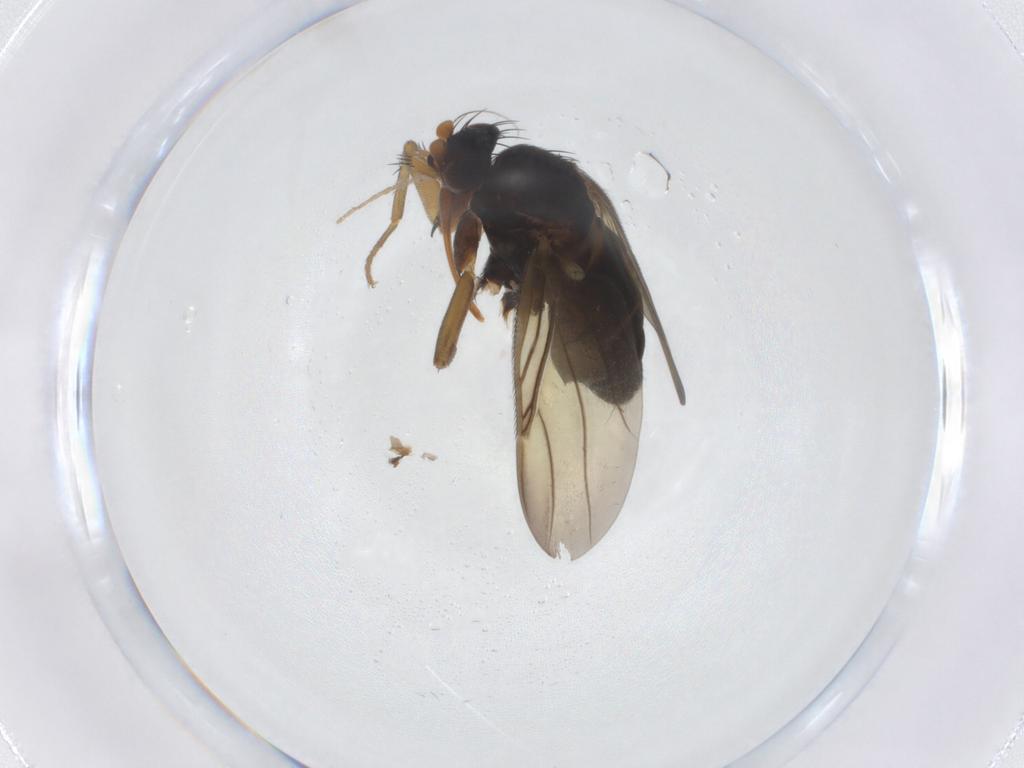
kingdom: Animalia
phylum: Arthropoda
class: Insecta
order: Diptera
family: Phoridae
